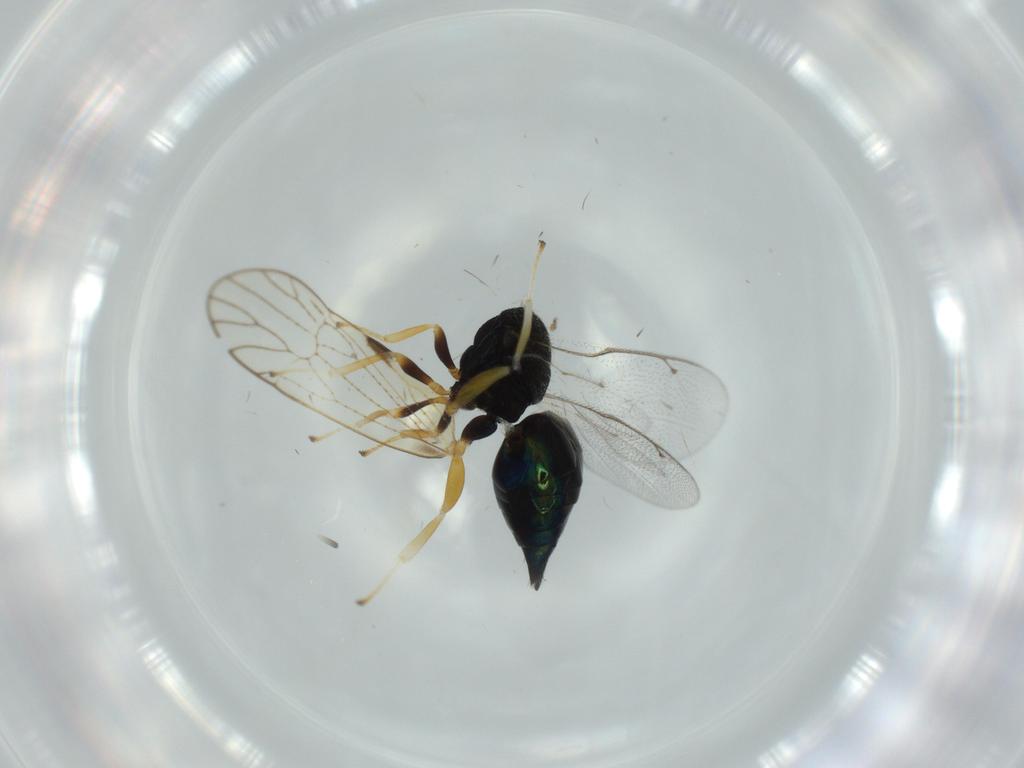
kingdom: Animalia
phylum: Arthropoda
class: Insecta
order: Hymenoptera
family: Pteromalidae
